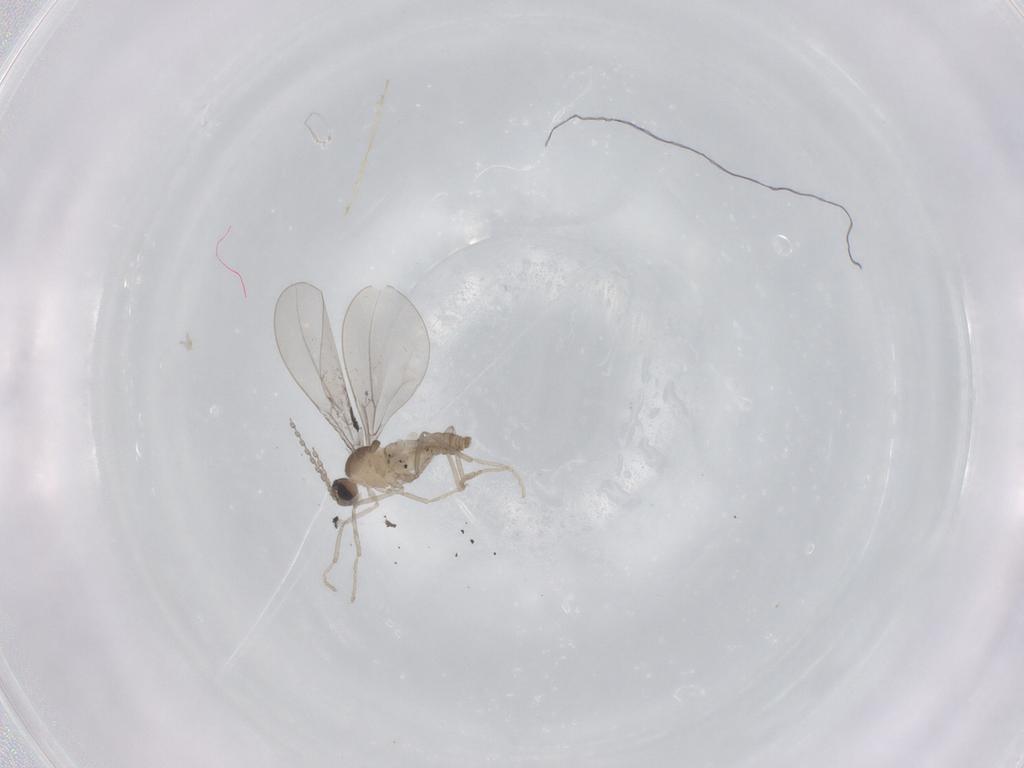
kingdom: Animalia
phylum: Arthropoda
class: Insecta
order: Diptera
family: Cecidomyiidae
